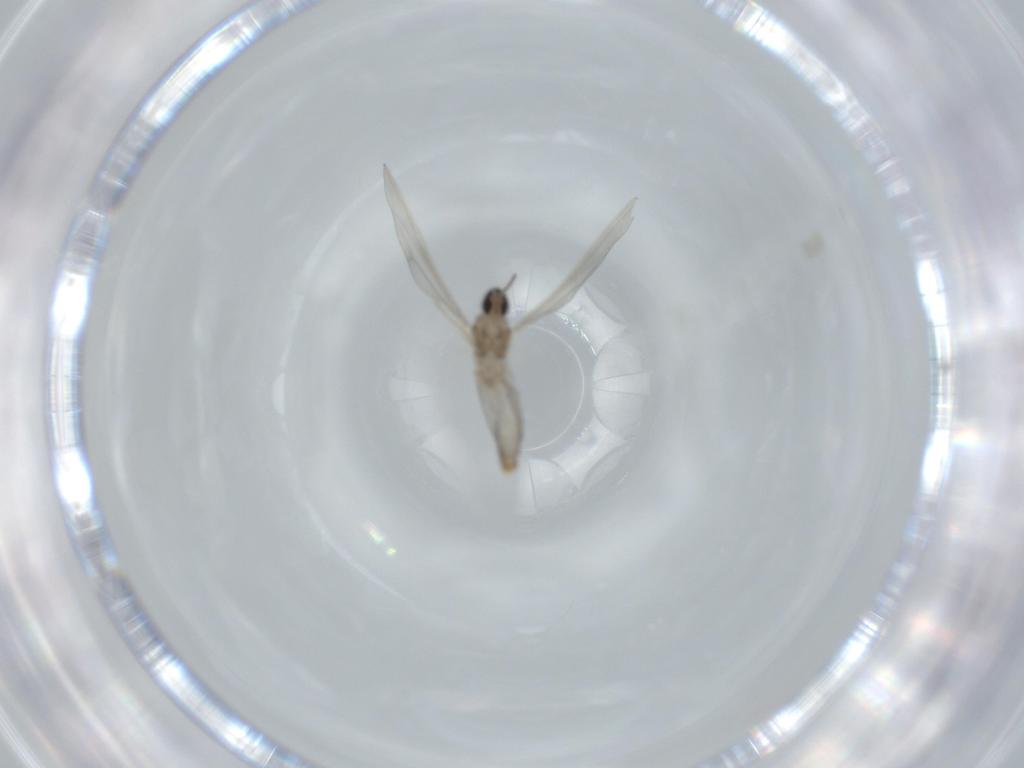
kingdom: Animalia
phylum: Arthropoda
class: Insecta
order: Diptera
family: Cecidomyiidae
